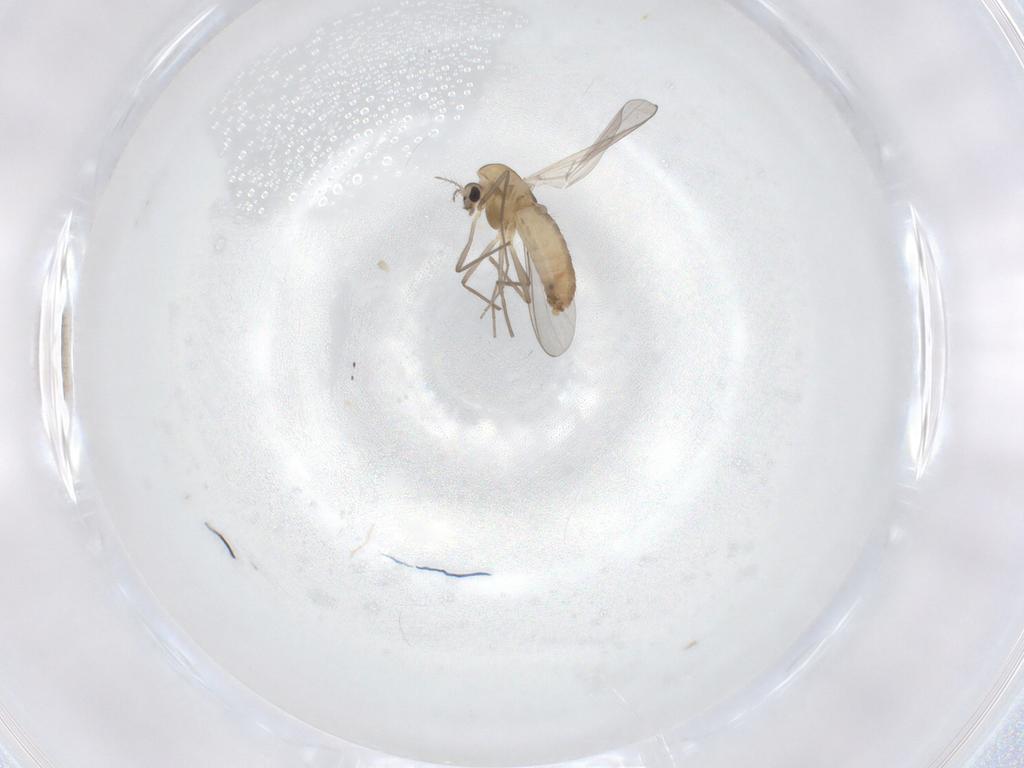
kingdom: Animalia
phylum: Arthropoda
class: Insecta
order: Diptera
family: Chironomidae
